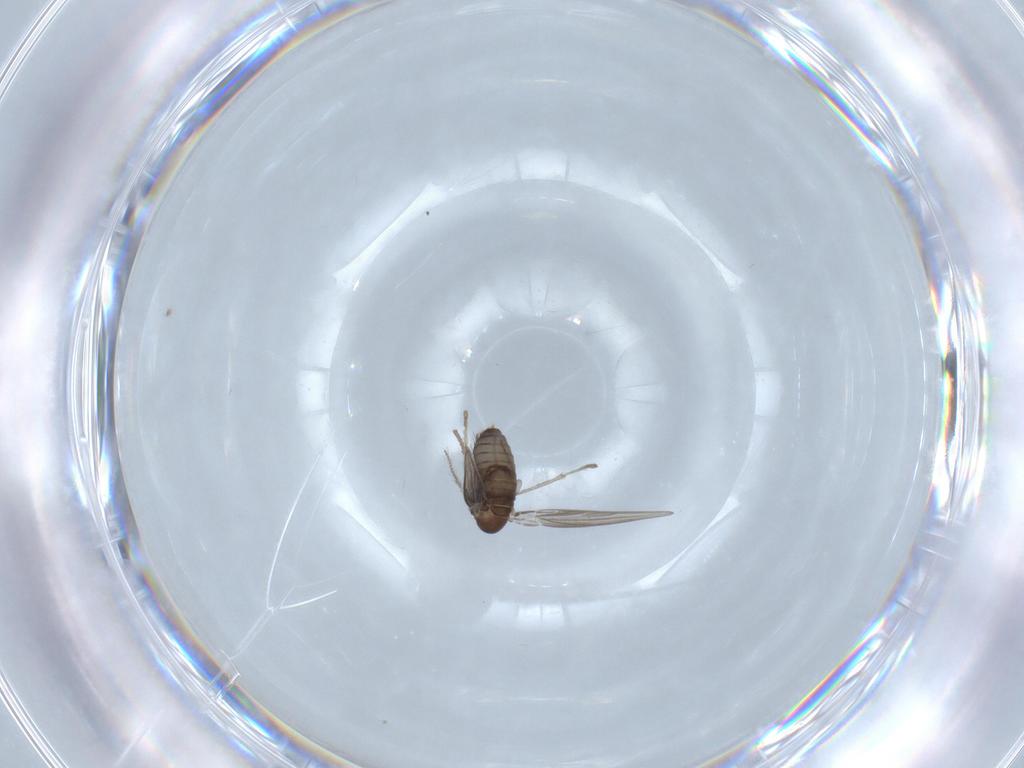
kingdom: Animalia
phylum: Arthropoda
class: Insecta
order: Diptera
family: Psychodidae
